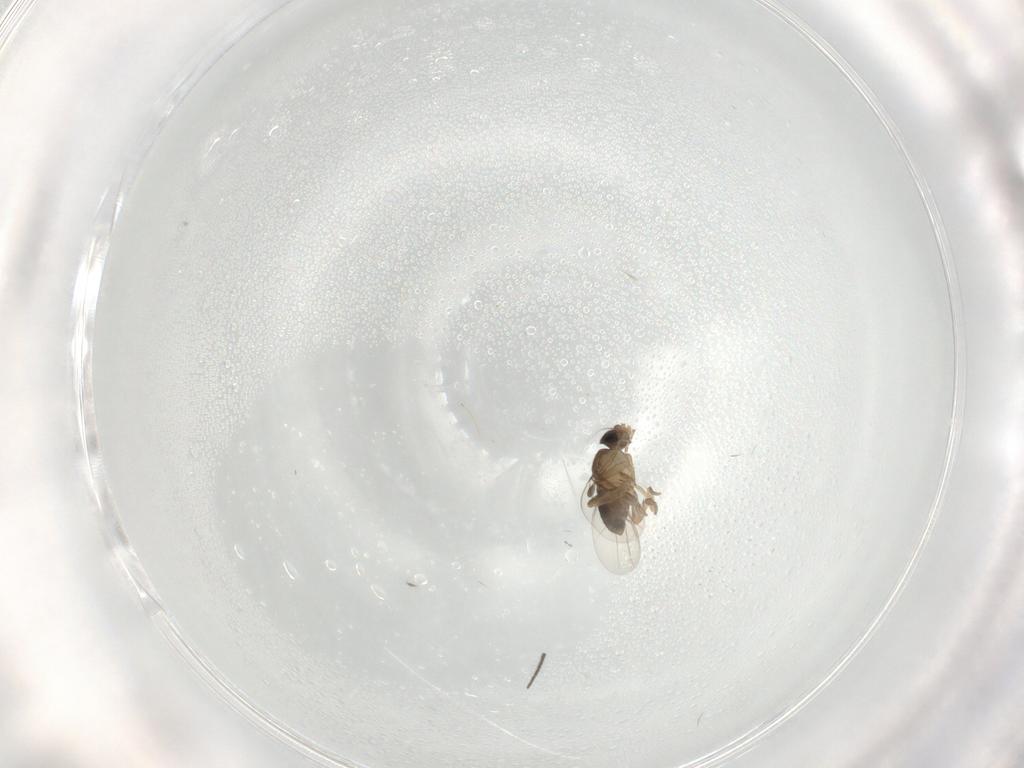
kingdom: Animalia
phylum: Arthropoda
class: Insecta
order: Diptera
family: Phoridae
